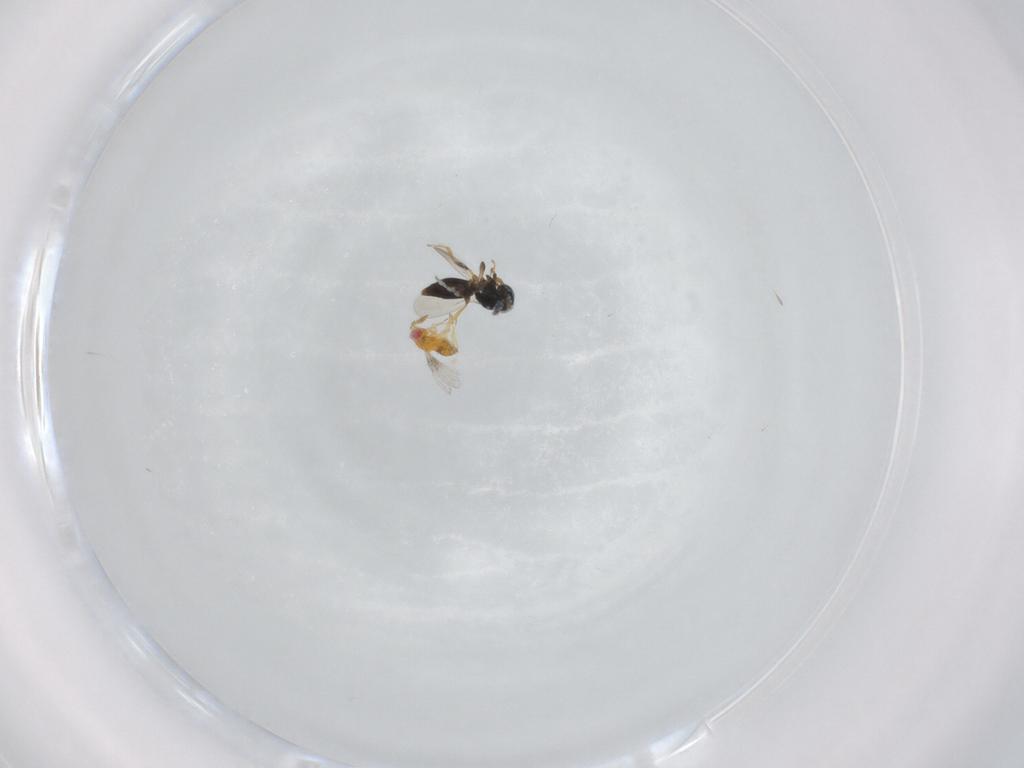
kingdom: Animalia
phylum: Arthropoda
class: Insecta
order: Hymenoptera
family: Trichogrammatidae
